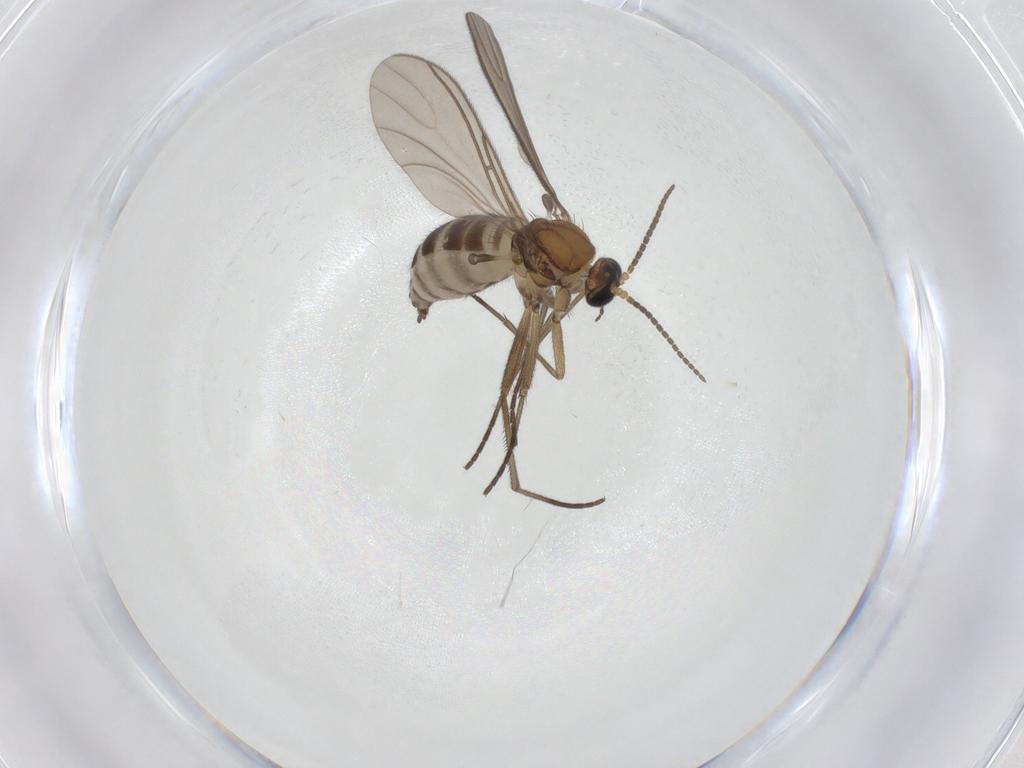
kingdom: Animalia
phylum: Arthropoda
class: Insecta
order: Diptera
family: Sciaridae
